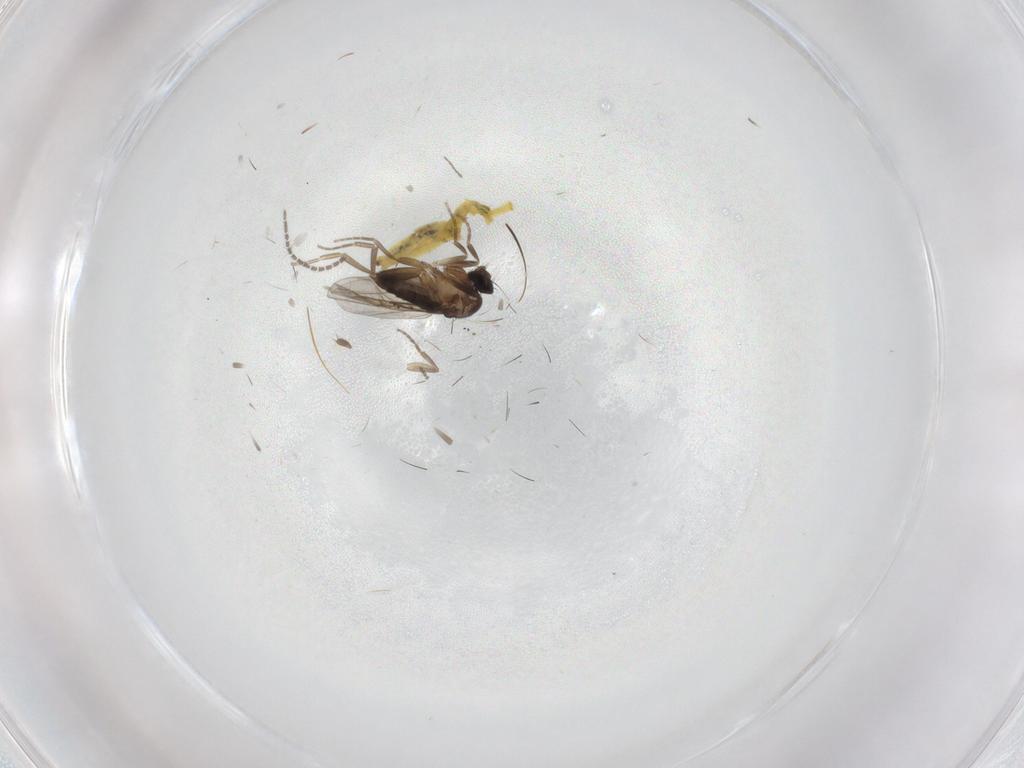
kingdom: Animalia
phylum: Arthropoda
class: Insecta
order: Diptera
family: Phoridae
